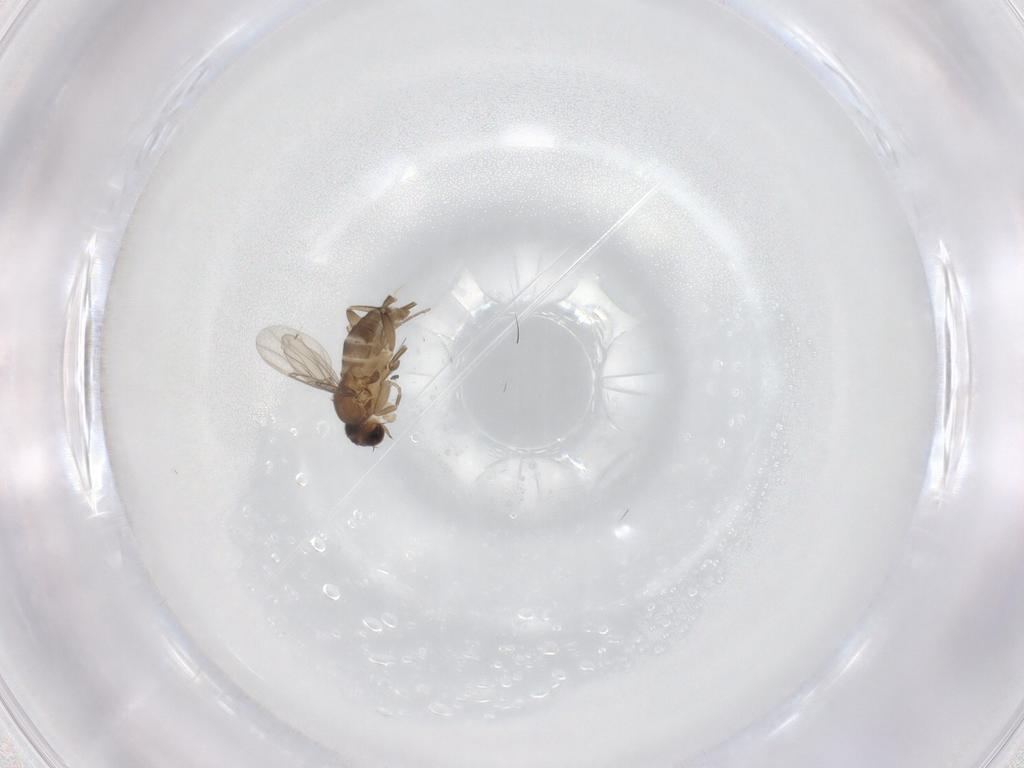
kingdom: Animalia
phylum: Arthropoda
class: Insecta
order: Diptera
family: Phoridae
